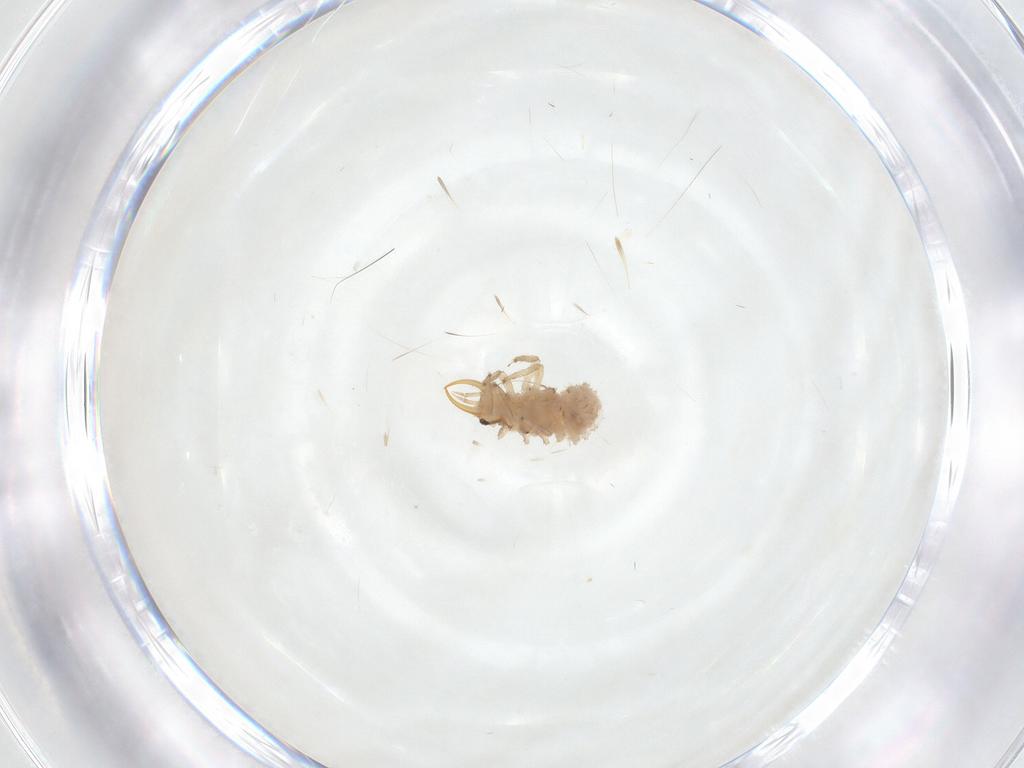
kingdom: Animalia
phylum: Arthropoda
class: Insecta
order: Neuroptera
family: Chrysopidae
